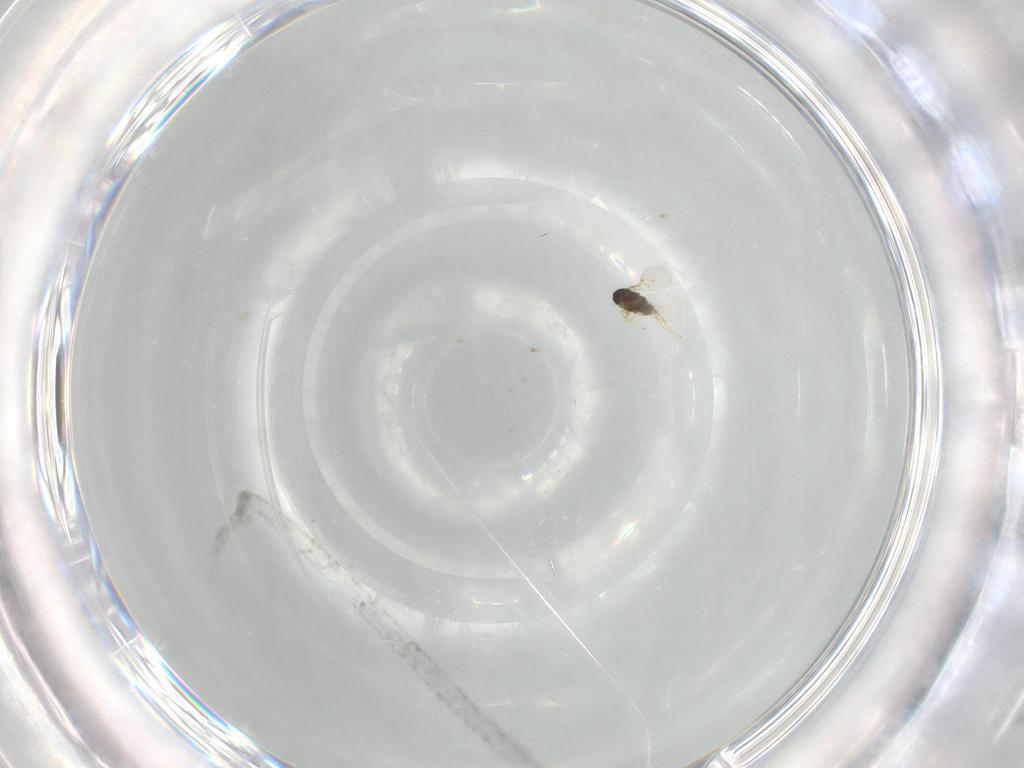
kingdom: Animalia
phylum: Arthropoda
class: Insecta
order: Hymenoptera
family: Encyrtidae
